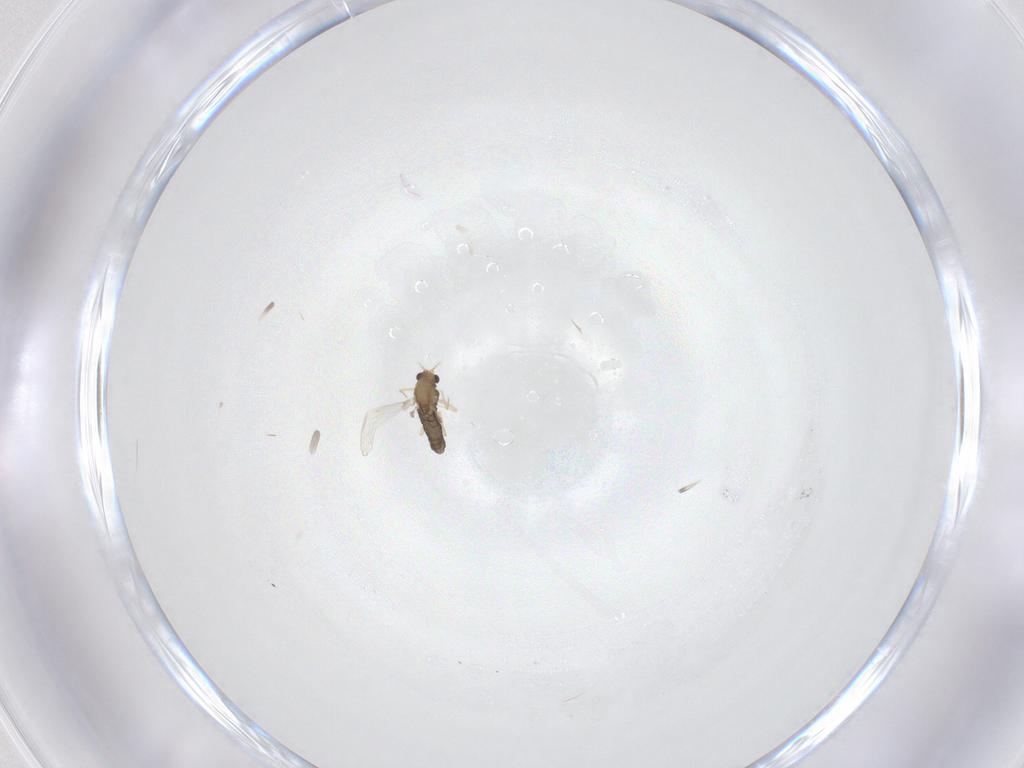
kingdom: Animalia
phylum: Arthropoda
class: Insecta
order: Diptera
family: Chironomidae
